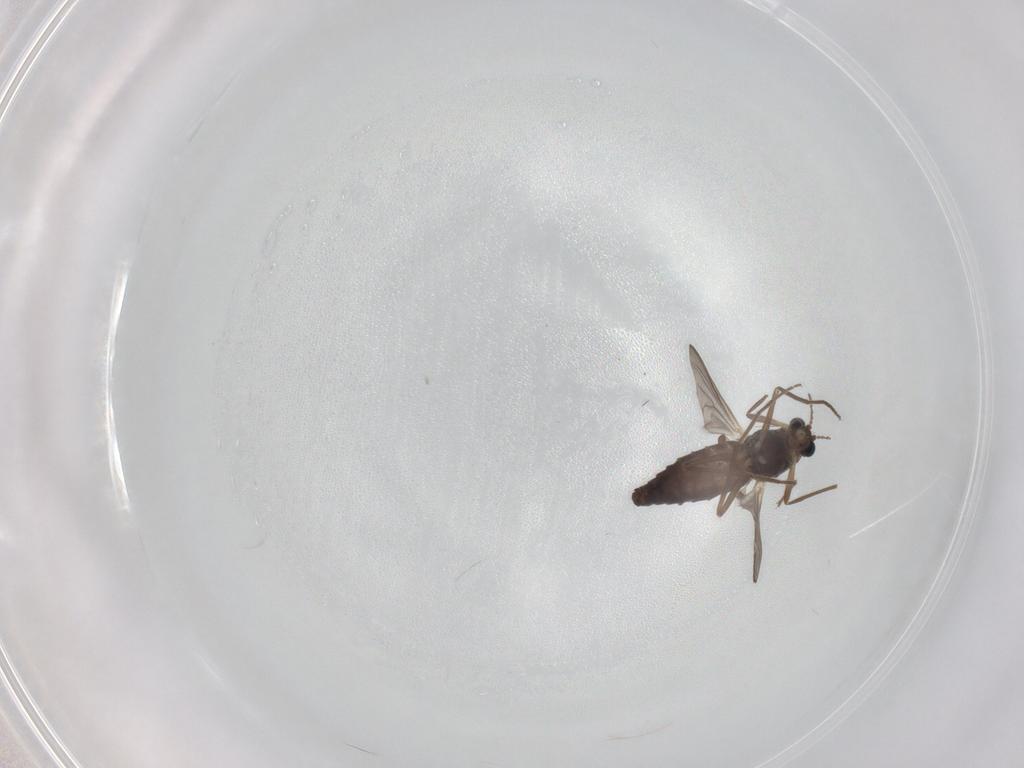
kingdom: Animalia
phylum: Arthropoda
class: Insecta
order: Diptera
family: Chironomidae
